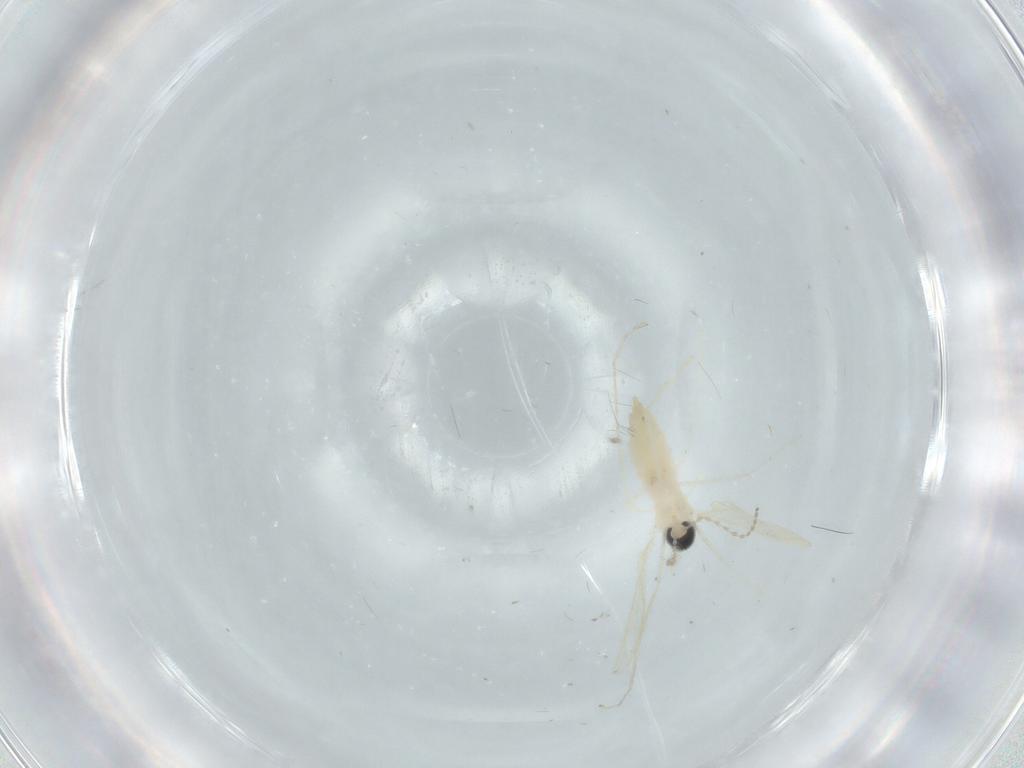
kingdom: Animalia
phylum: Arthropoda
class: Insecta
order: Diptera
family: Cecidomyiidae
